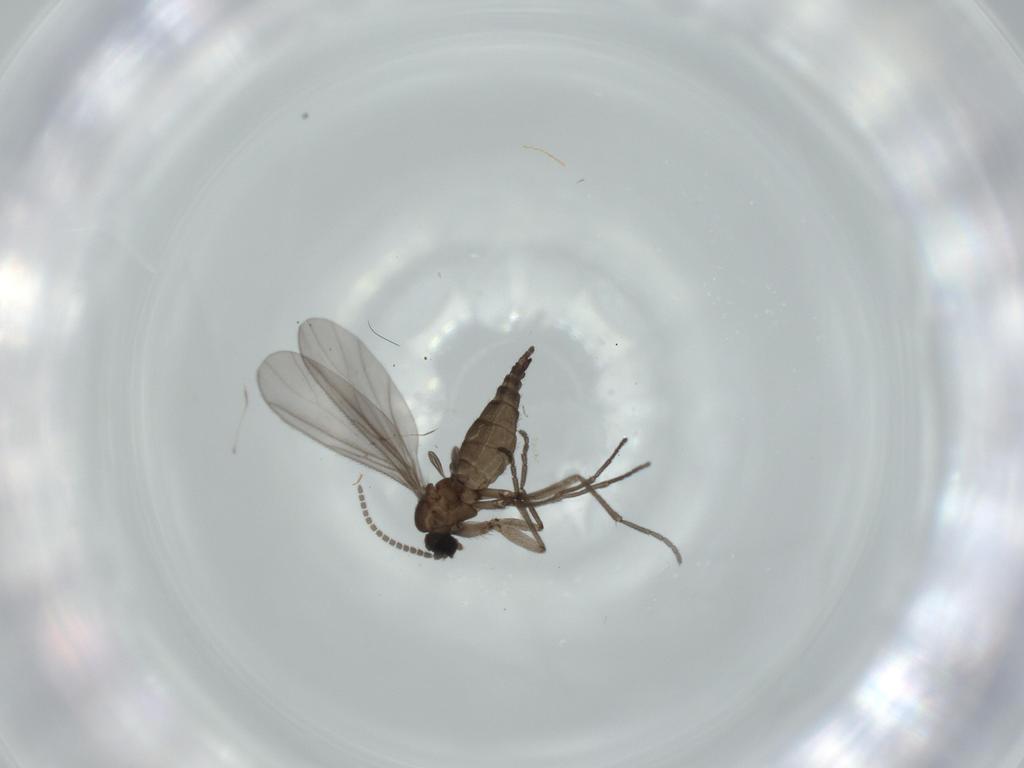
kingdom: Animalia
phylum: Arthropoda
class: Insecta
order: Diptera
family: Sciaridae
